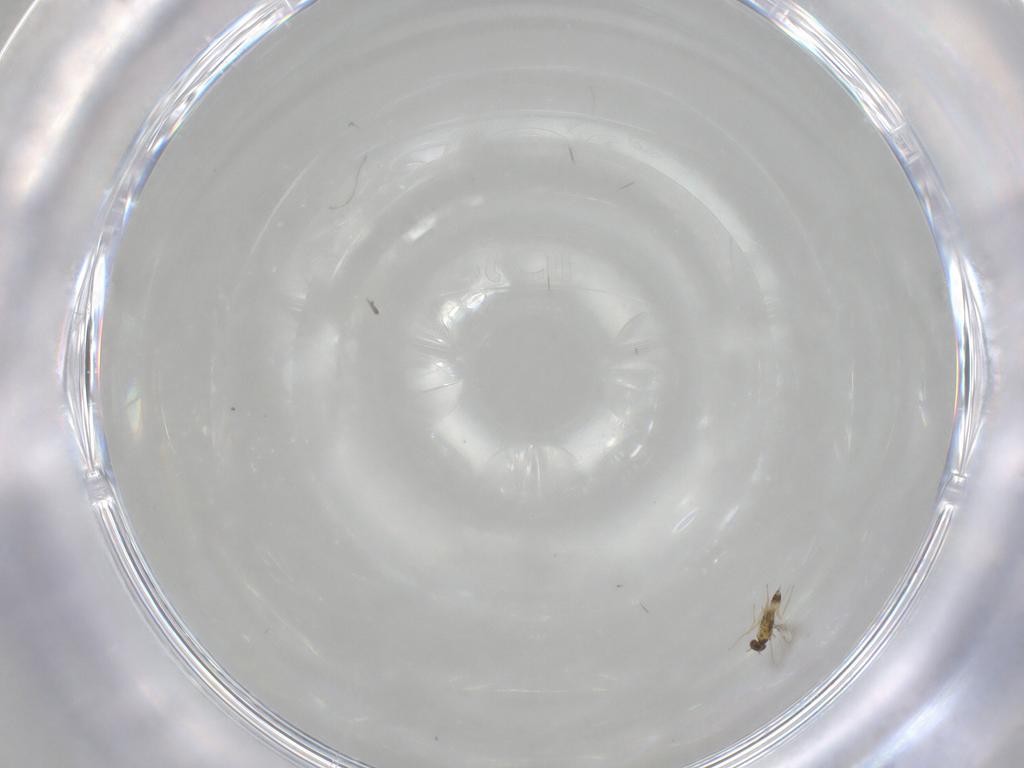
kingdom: Animalia
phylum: Arthropoda
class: Insecta
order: Hymenoptera
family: Mymaridae
